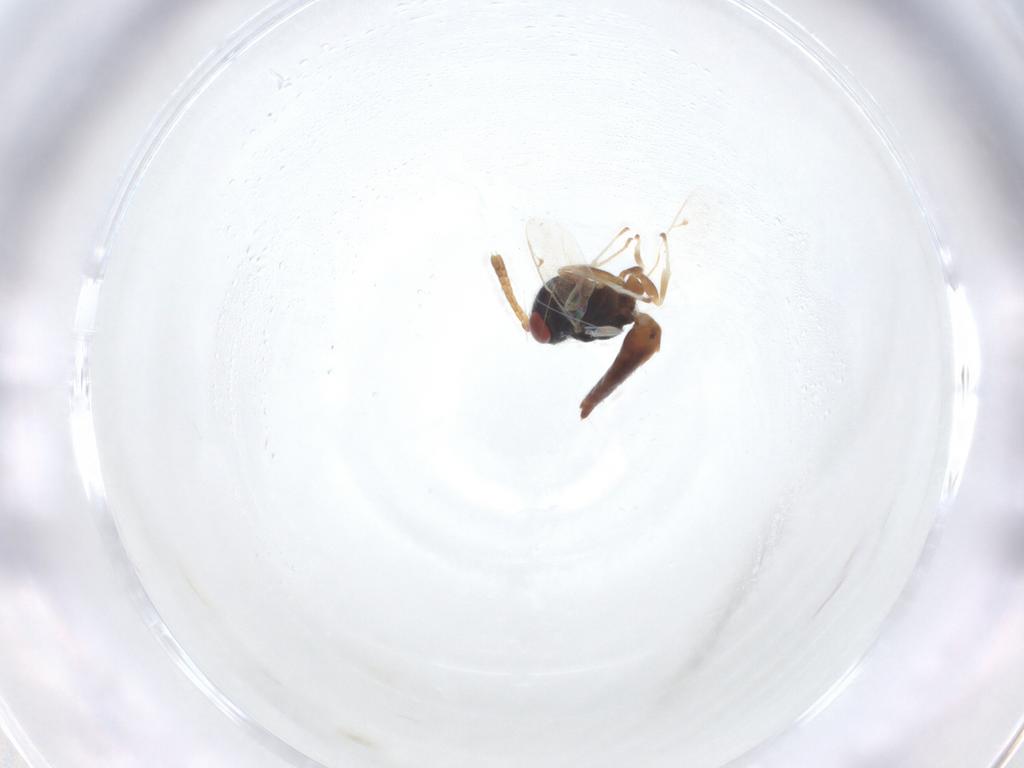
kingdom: Animalia
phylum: Arthropoda
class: Insecta
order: Hymenoptera
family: Pteromalidae
